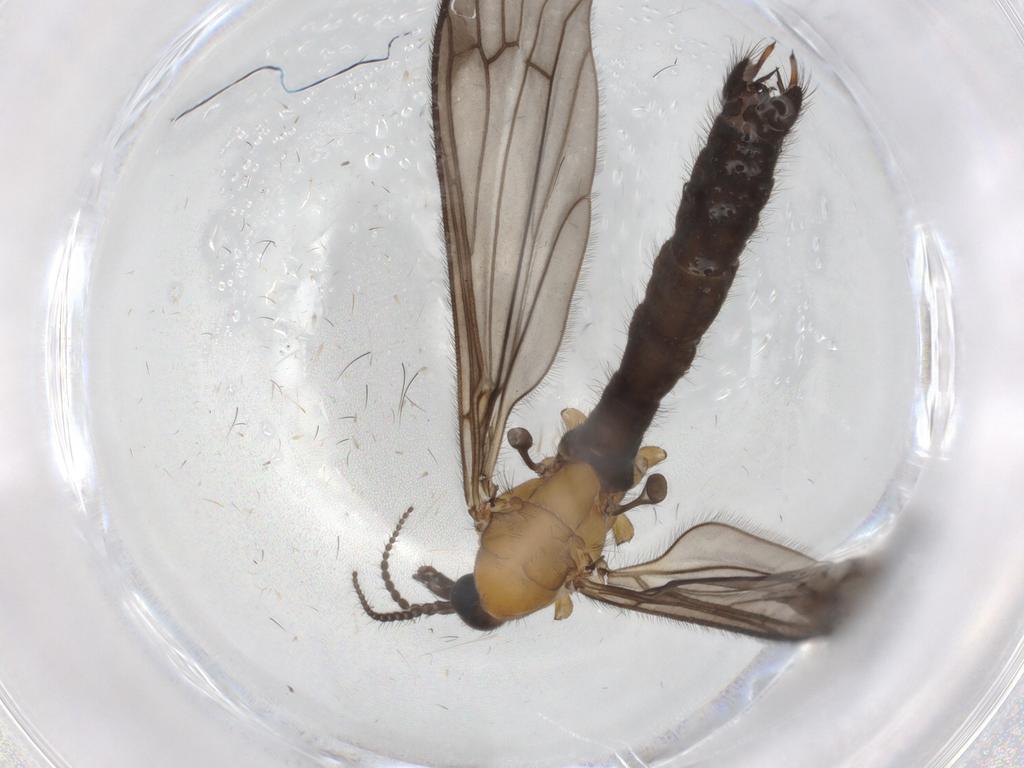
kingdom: Animalia
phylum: Arthropoda
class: Insecta
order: Diptera
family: Limoniidae
